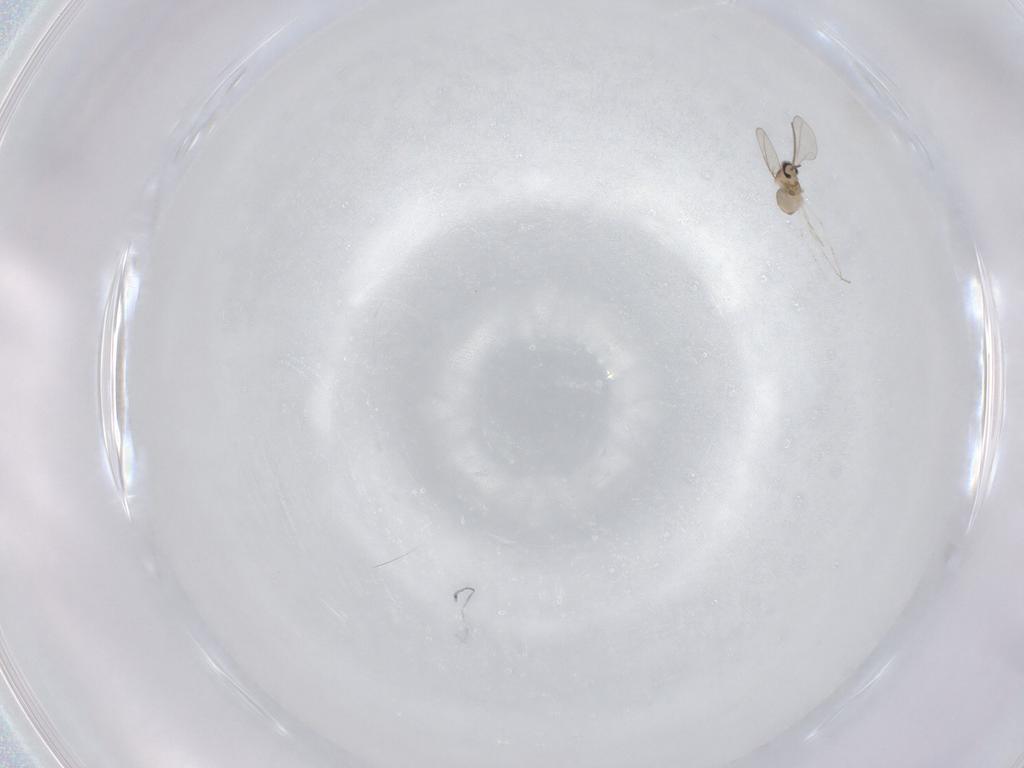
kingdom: Animalia
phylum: Arthropoda
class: Insecta
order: Diptera
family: Cecidomyiidae
